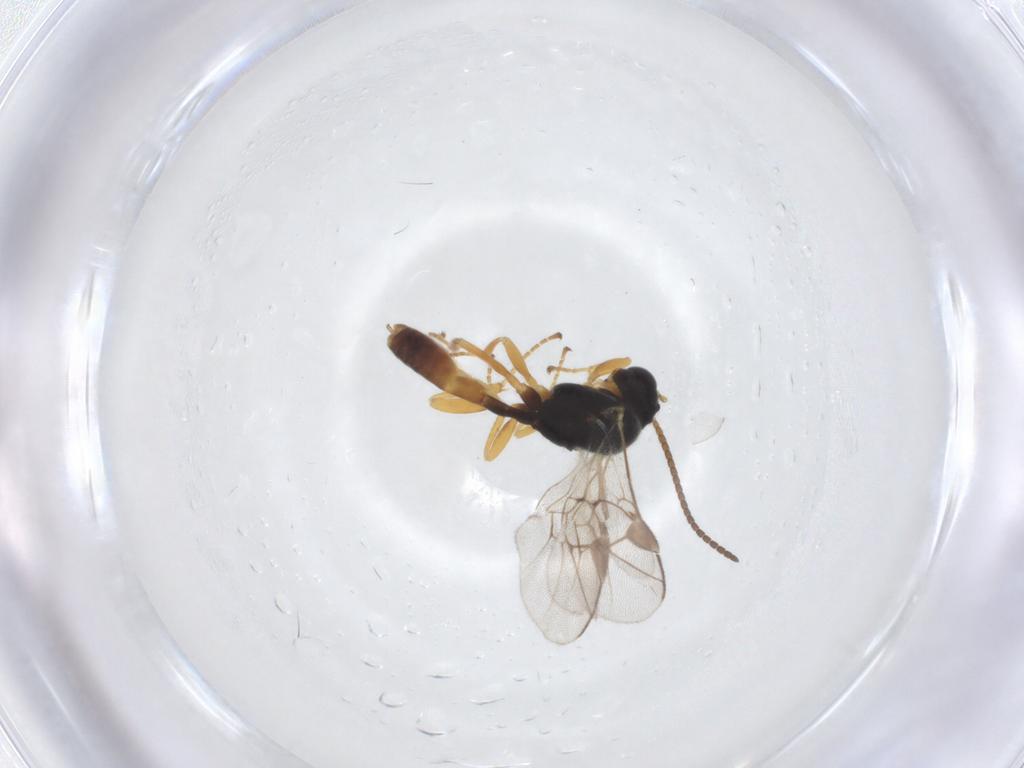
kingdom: Animalia
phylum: Arthropoda
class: Insecta
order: Hymenoptera
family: Ichneumonidae
